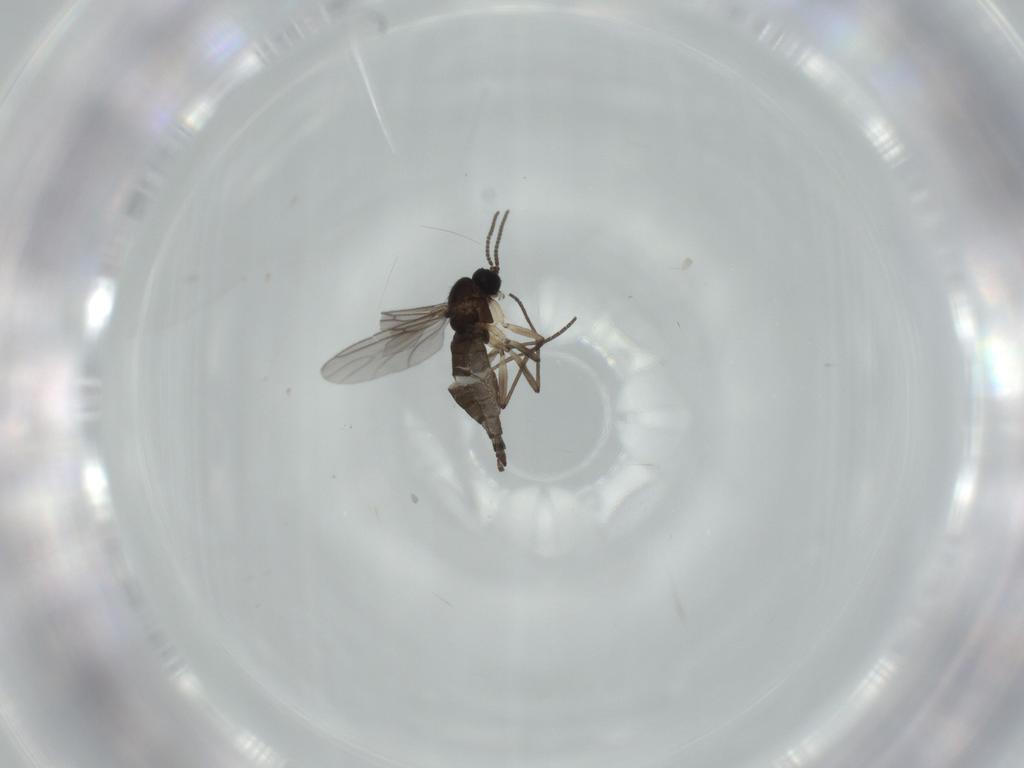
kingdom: Animalia
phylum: Arthropoda
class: Insecta
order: Diptera
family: Sciaridae
